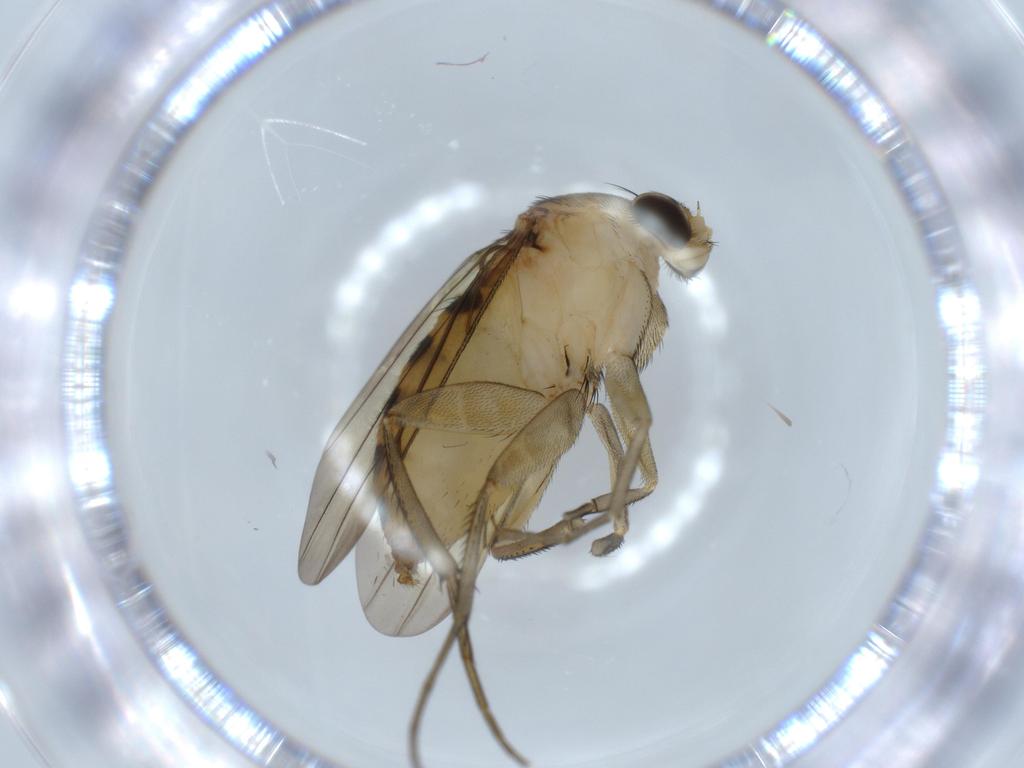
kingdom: Animalia
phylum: Arthropoda
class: Insecta
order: Diptera
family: Phoridae
